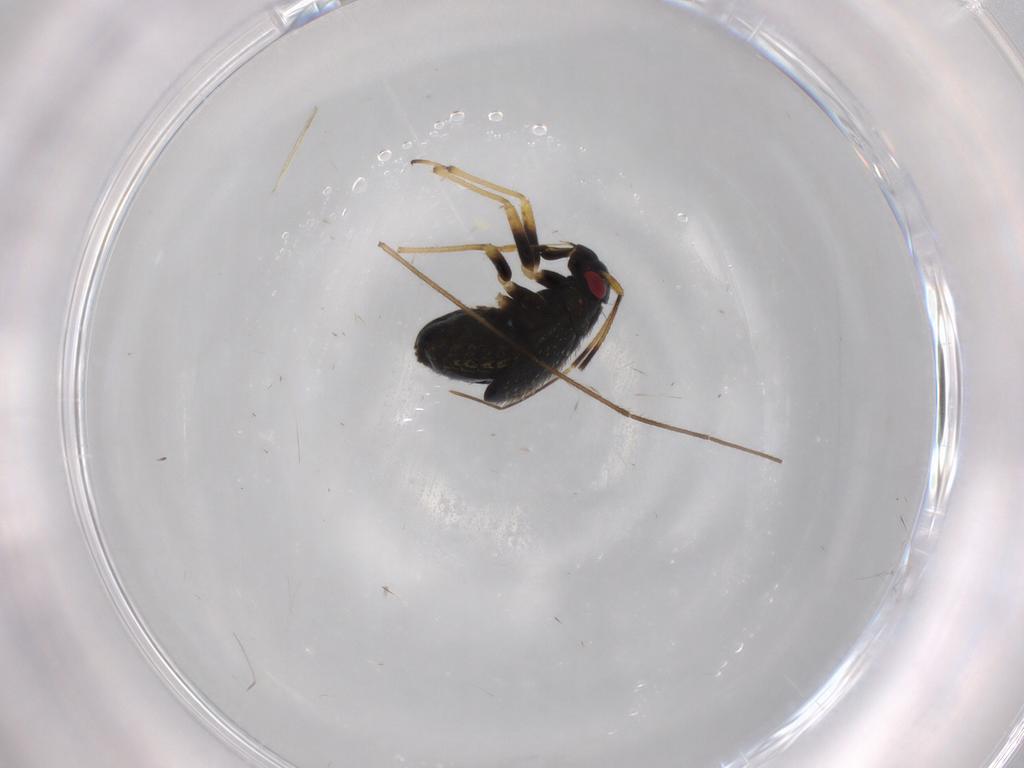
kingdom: Animalia
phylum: Arthropoda
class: Insecta
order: Hemiptera
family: Miridae
